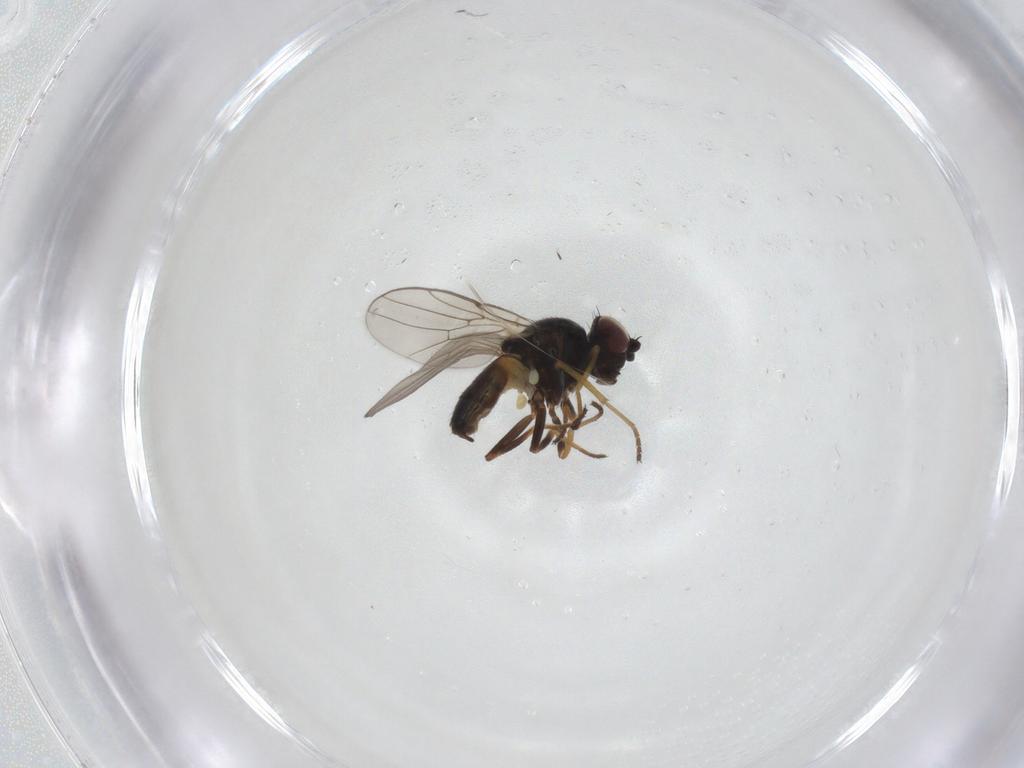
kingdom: Animalia
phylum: Arthropoda
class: Insecta
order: Diptera
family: Chloropidae
